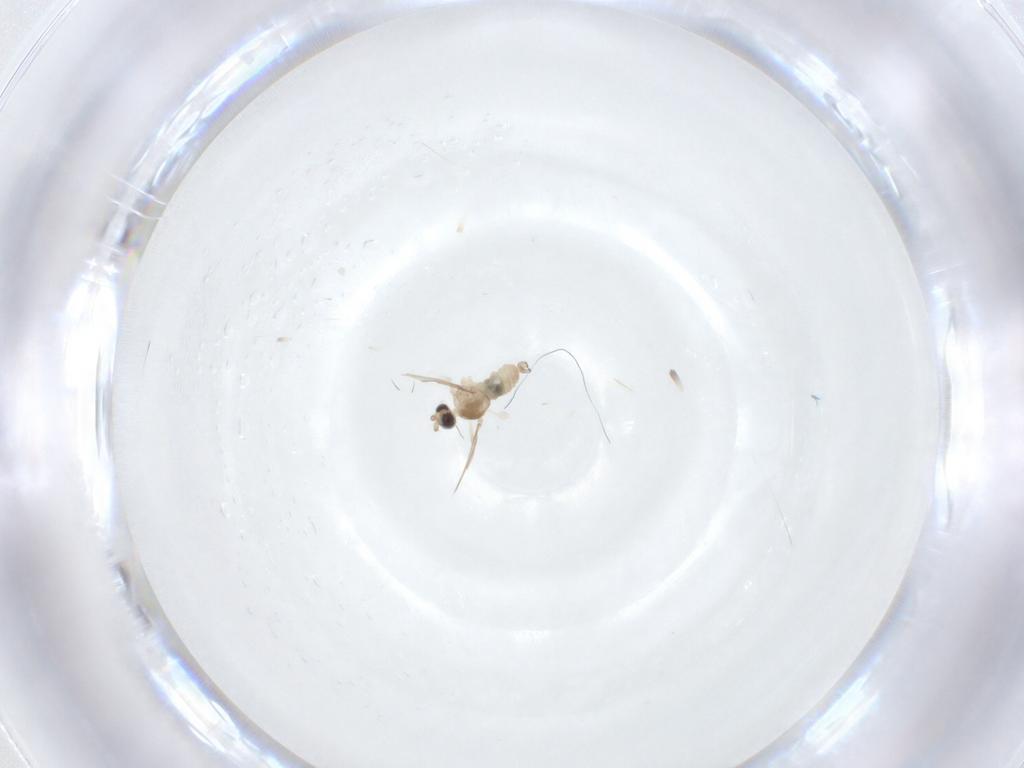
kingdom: Animalia
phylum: Arthropoda
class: Insecta
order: Diptera
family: Cecidomyiidae
